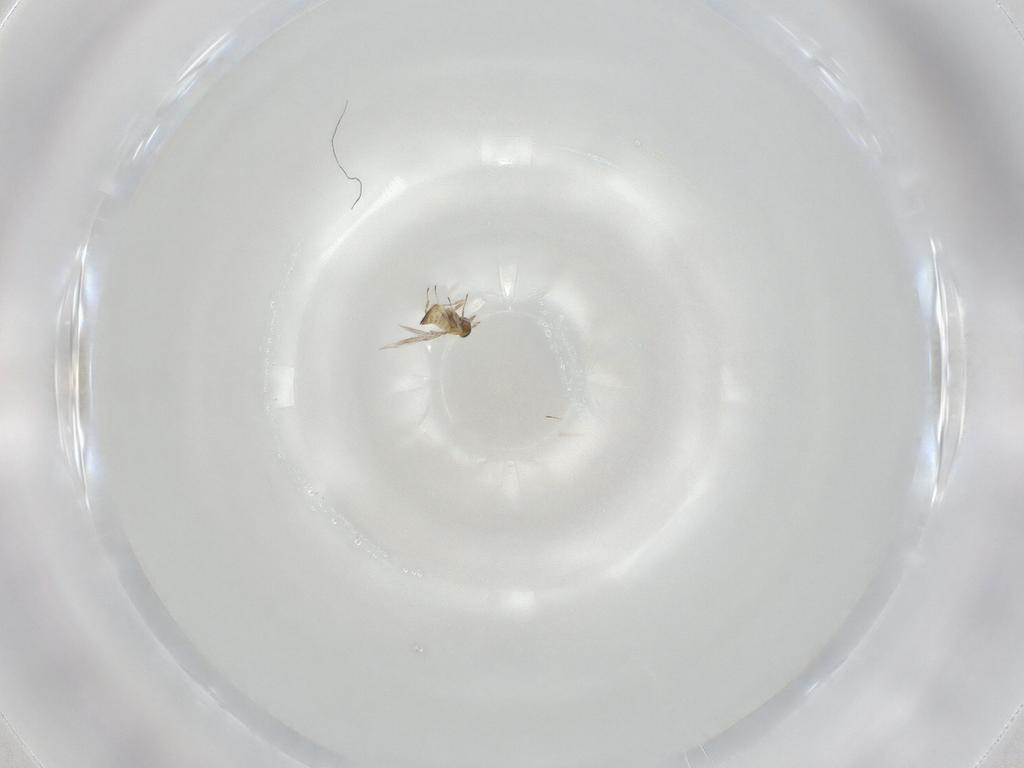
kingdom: Animalia
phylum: Arthropoda
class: Insecta
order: Hymenoptera
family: Trichogrammatidae
